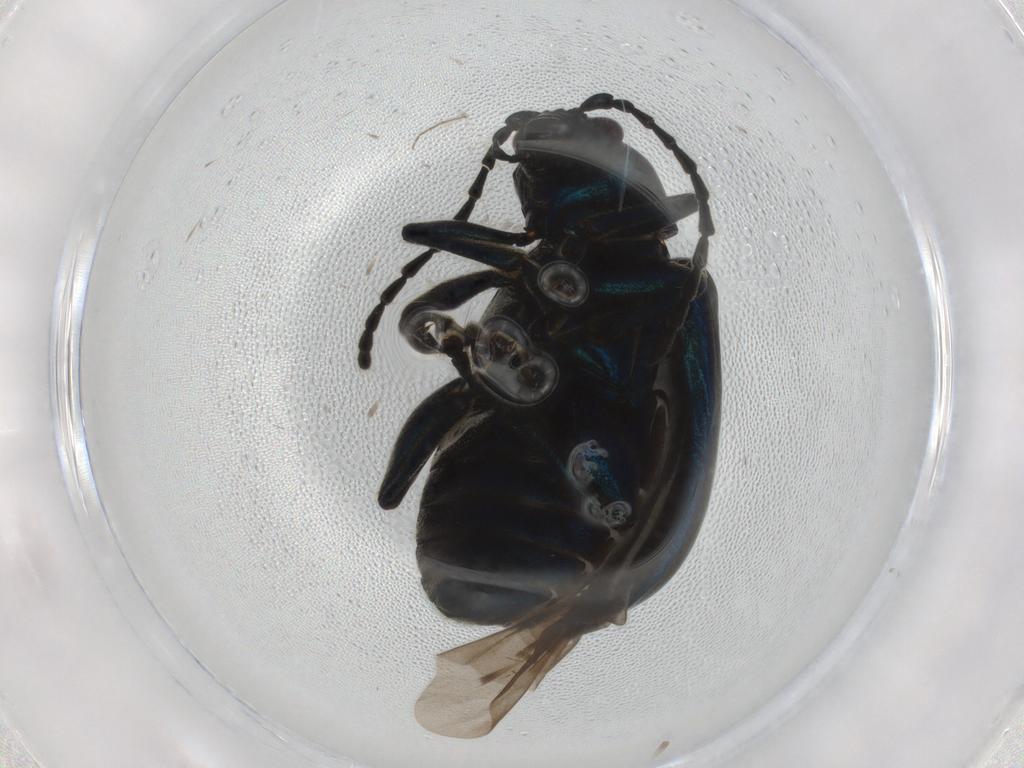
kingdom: Animalia
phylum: Arthropoda
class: Insecta
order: Coleoptera
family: Chrysomelidae
